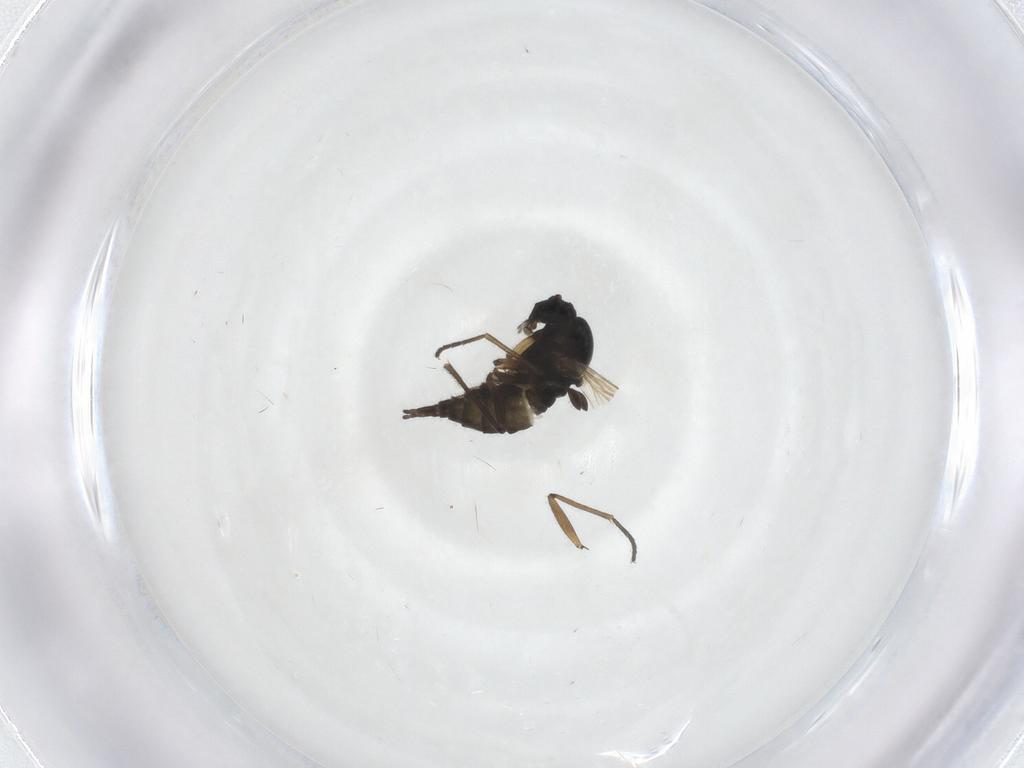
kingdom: Animalia
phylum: Arthropoda
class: Insecta
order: Diptera
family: Sciaridae
